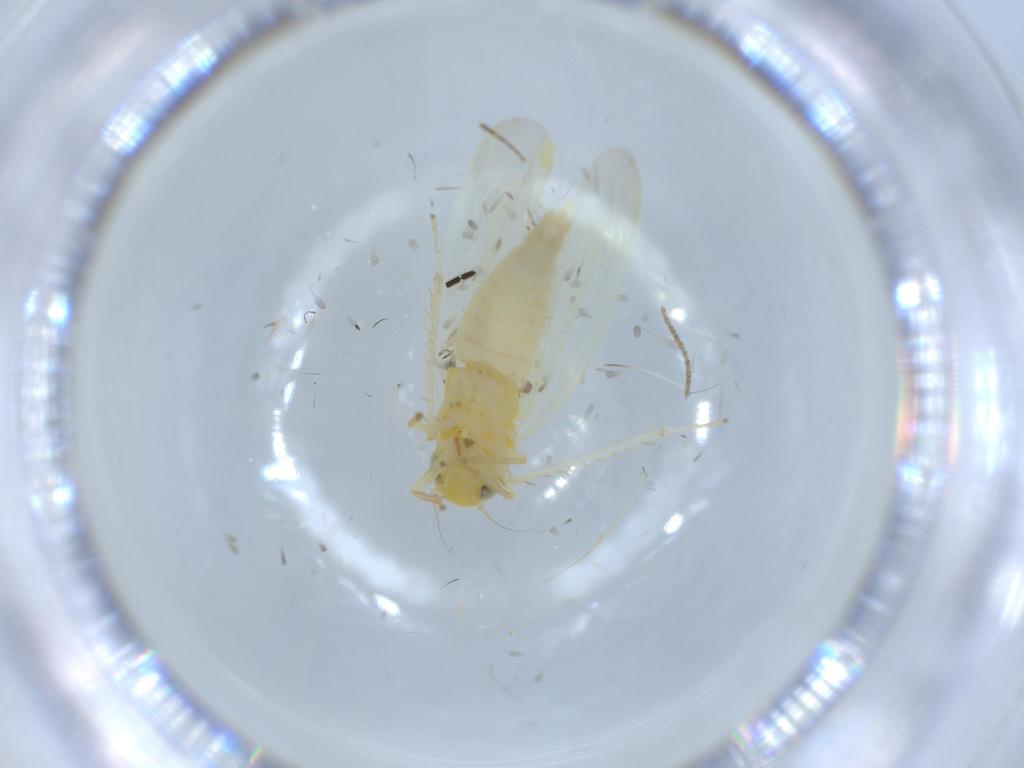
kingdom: Animalia
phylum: Arthropoda
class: Insecta
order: Hemiptera
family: Cicadellidae
